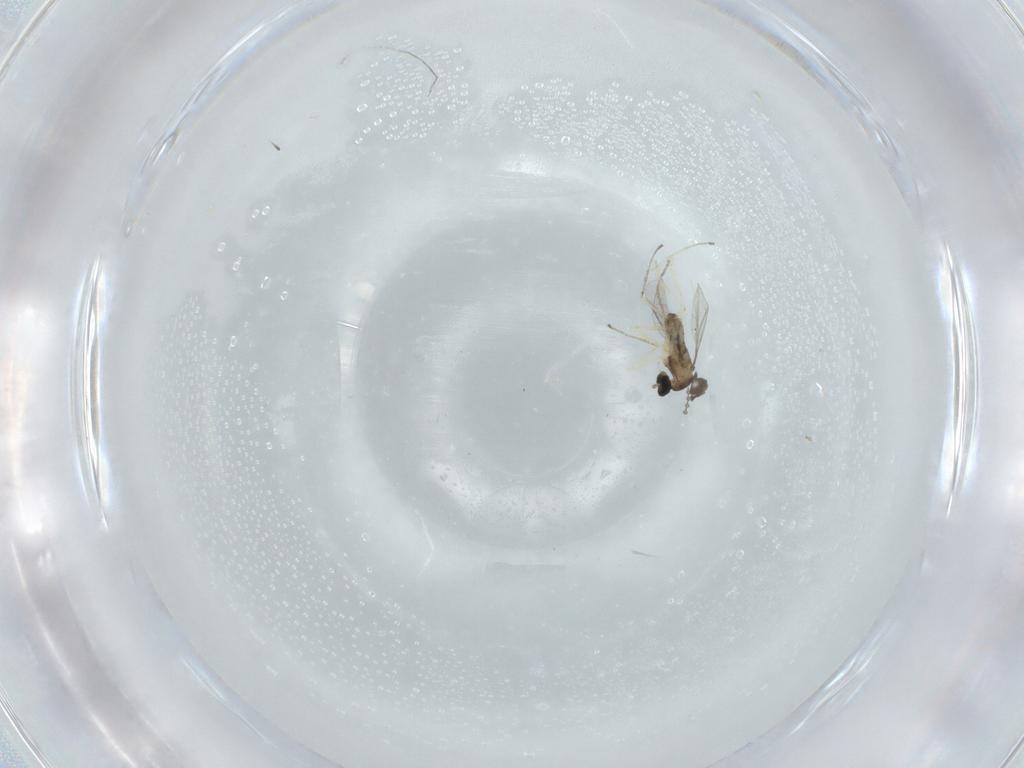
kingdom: Animalia
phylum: Arthropoda
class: Insecta
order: Diptera
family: Cecidomyiidae
